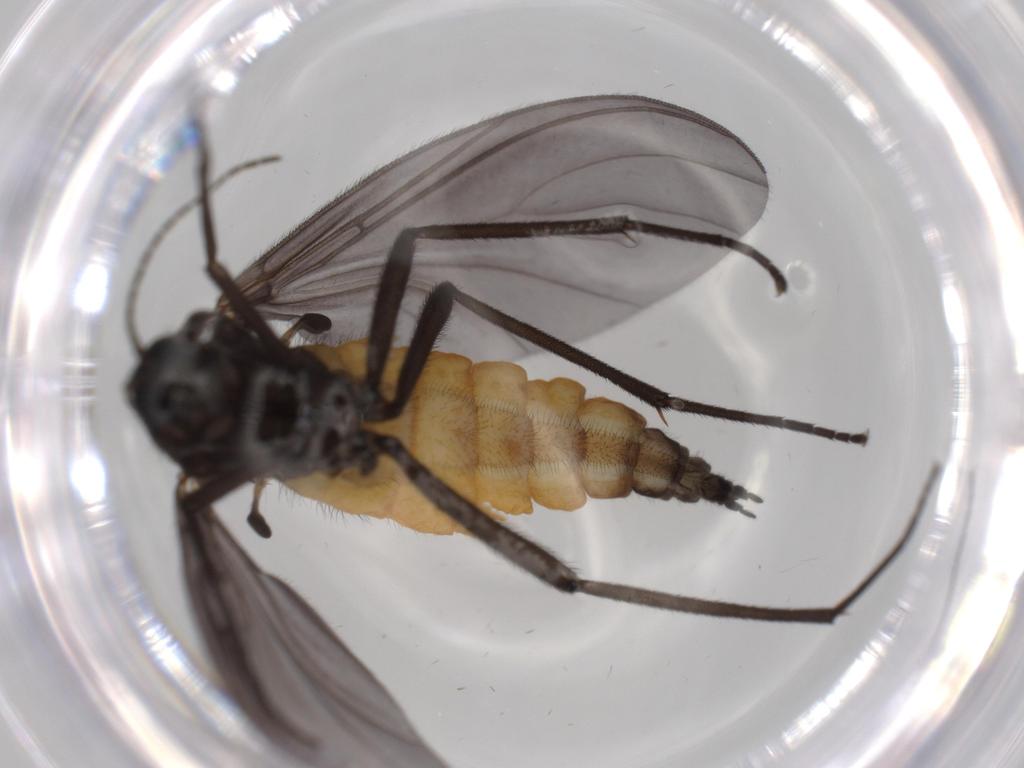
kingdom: Animalia
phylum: Arthropoda
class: Insecta
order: Diptera
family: Cecidomyiidae
